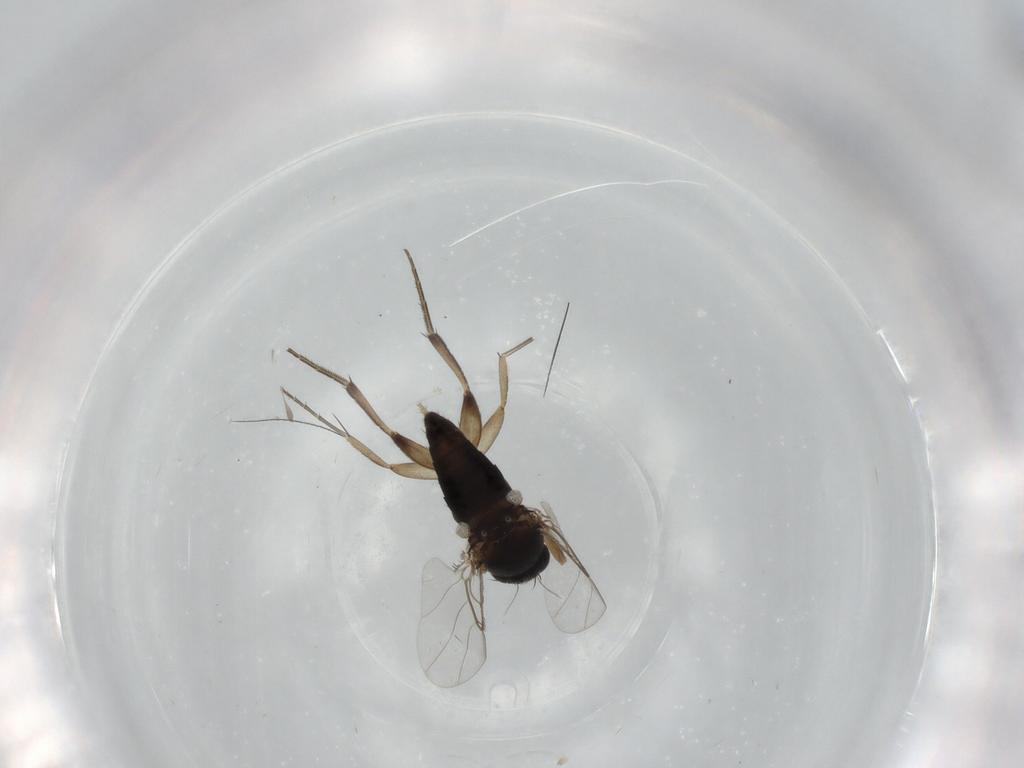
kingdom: Animalia
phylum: Arthropoda
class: Insecta
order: Diptera
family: Phoridae
